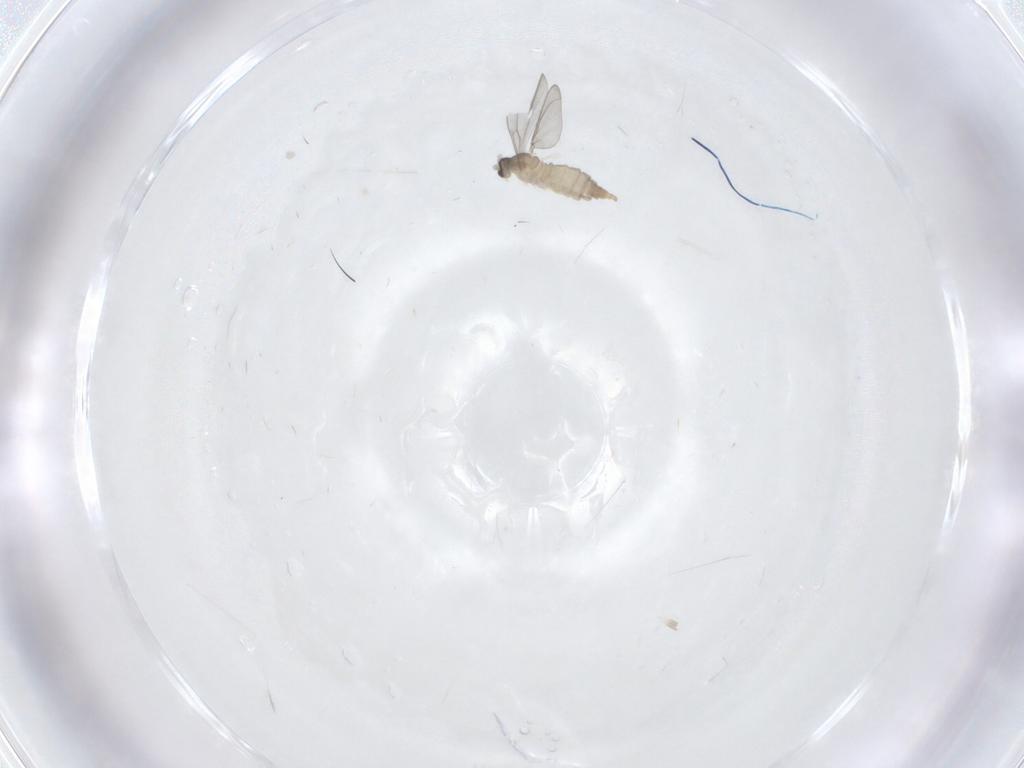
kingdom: Animalia
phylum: Arthropoda
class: Insecta
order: Diptera
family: Cecidomyiidae
